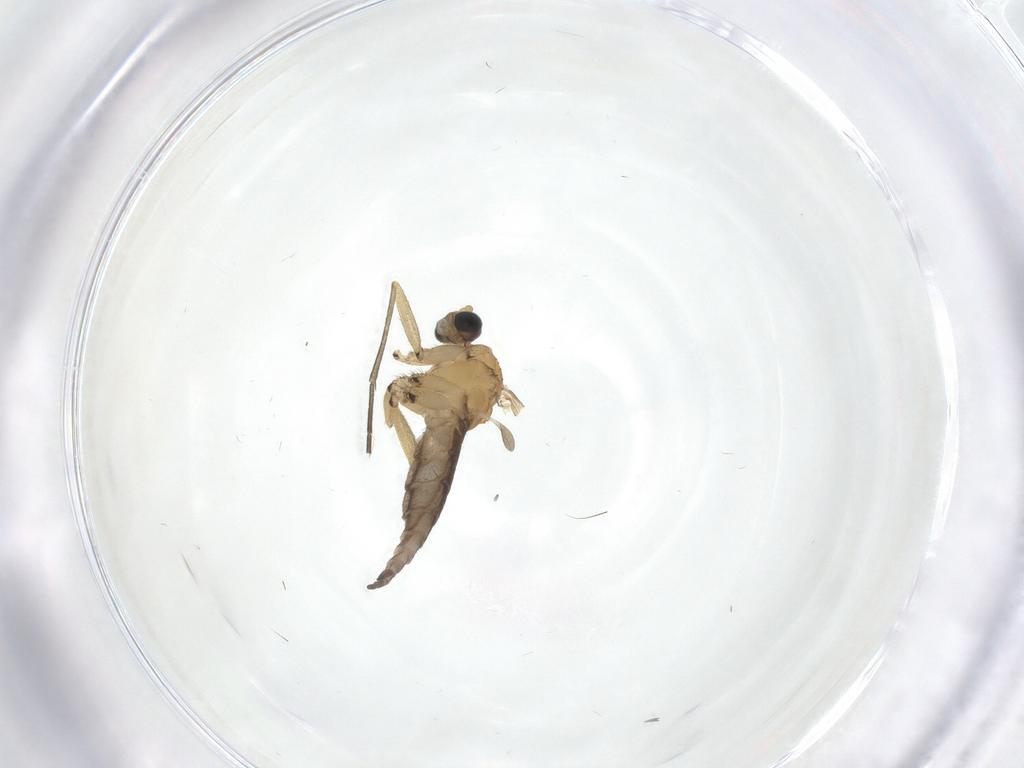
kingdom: Animalia
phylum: Arthropoda
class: Insecta
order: Diptera
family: Sciaridae
